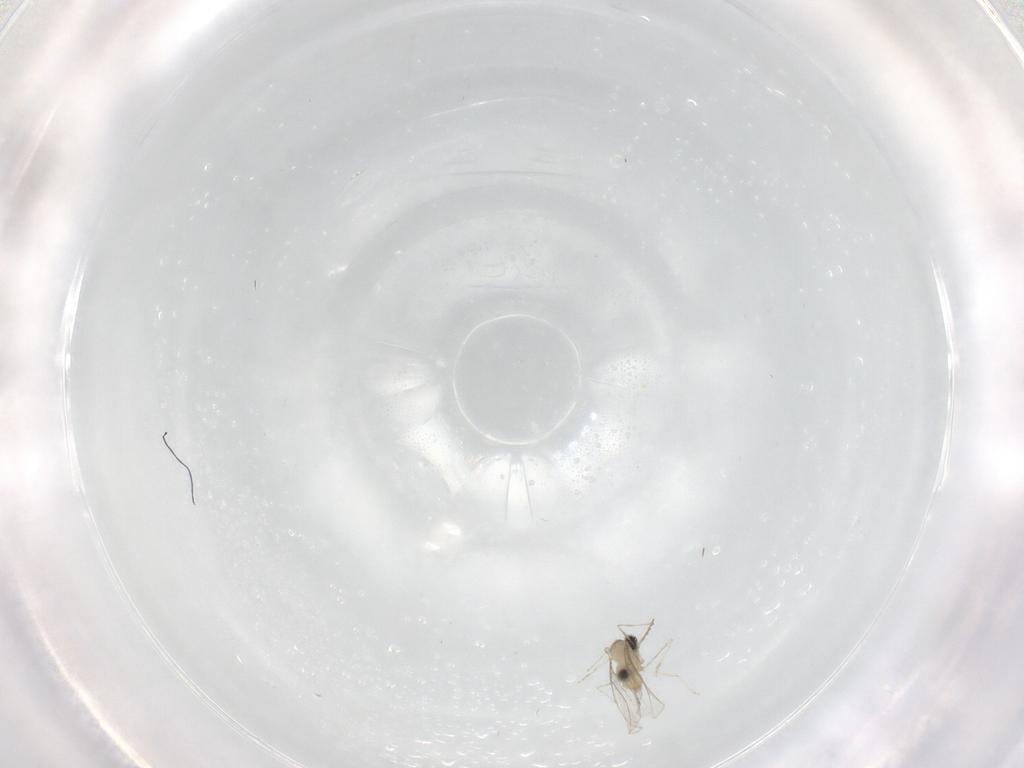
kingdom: Animalia
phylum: Arthropoda
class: Insecta
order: Diptera
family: Cecidomyiidae
